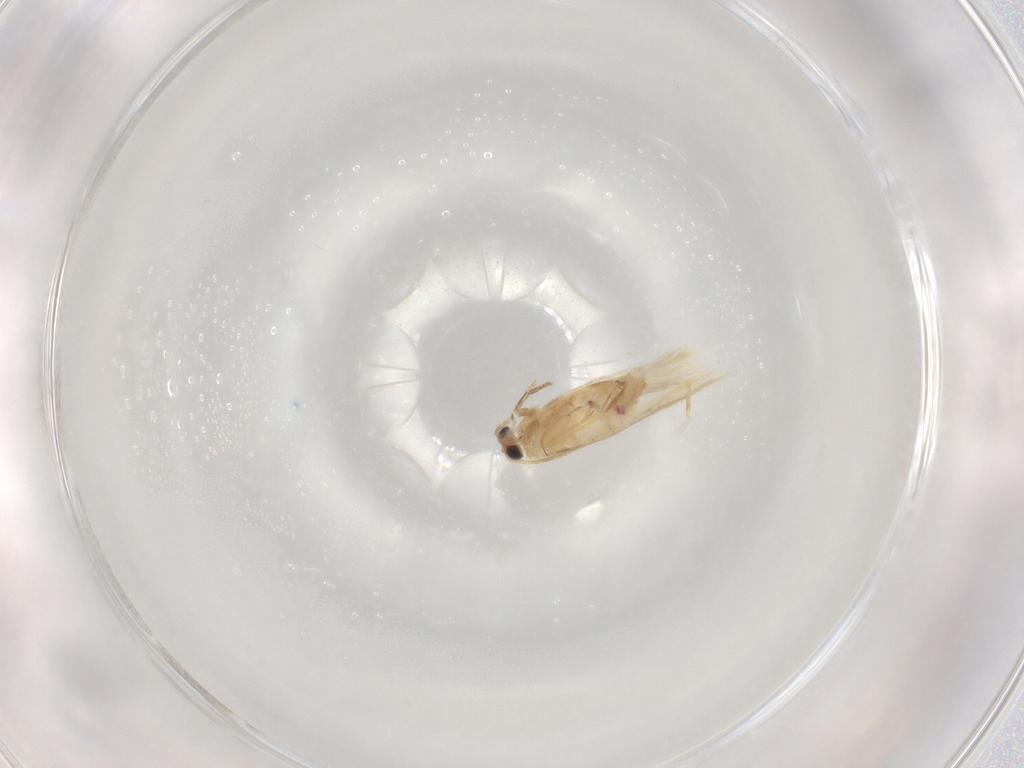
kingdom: Animalia
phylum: Arthropoda
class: Insecta
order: Lepidoptera
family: Nepticulidae
